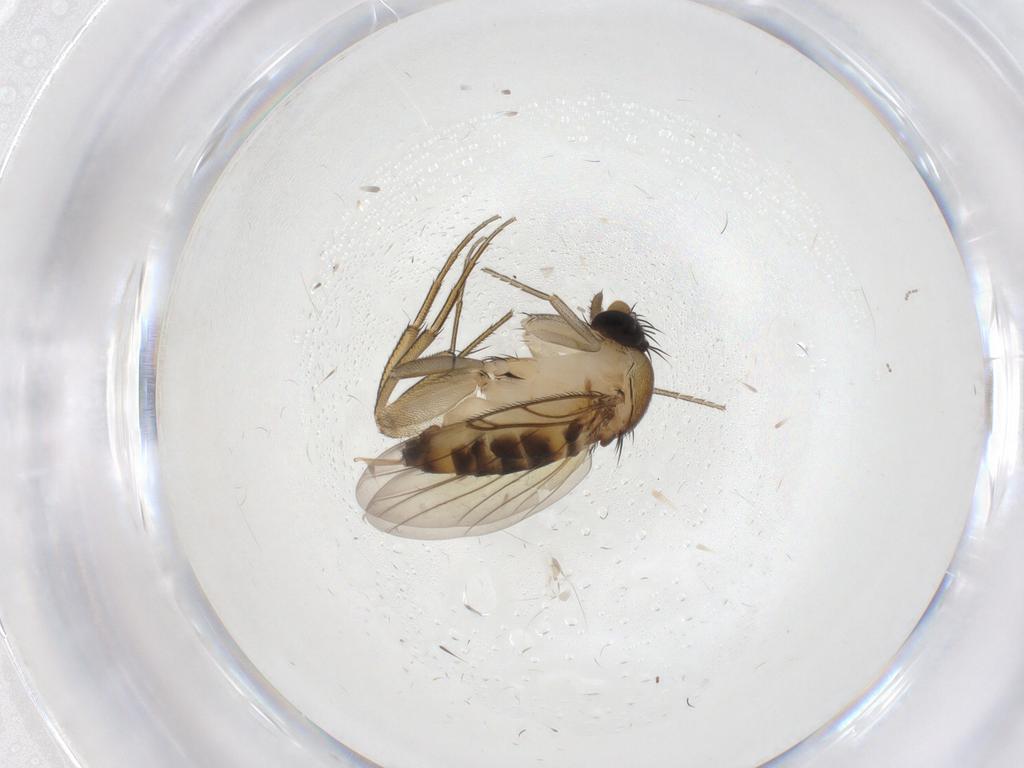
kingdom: Animalia
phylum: Arthropoda
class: Insecta
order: Diptera
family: Phoridae
